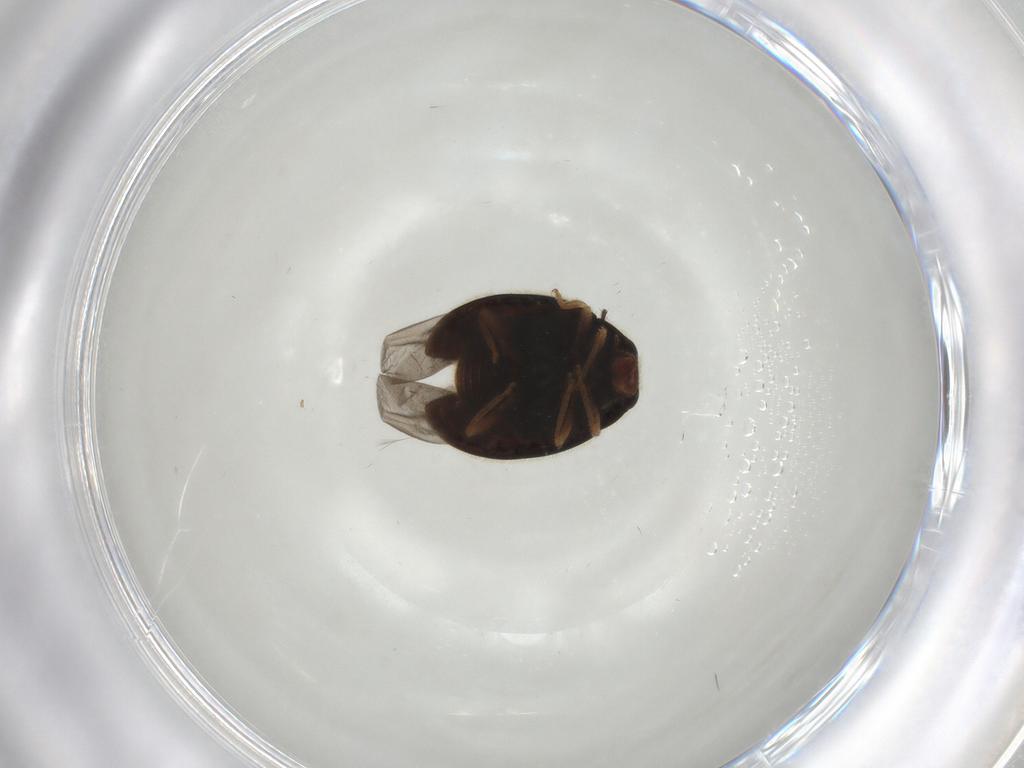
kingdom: Animalia
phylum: Arthropoda
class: Insecta
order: Coleoptera
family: Coccinellidae
